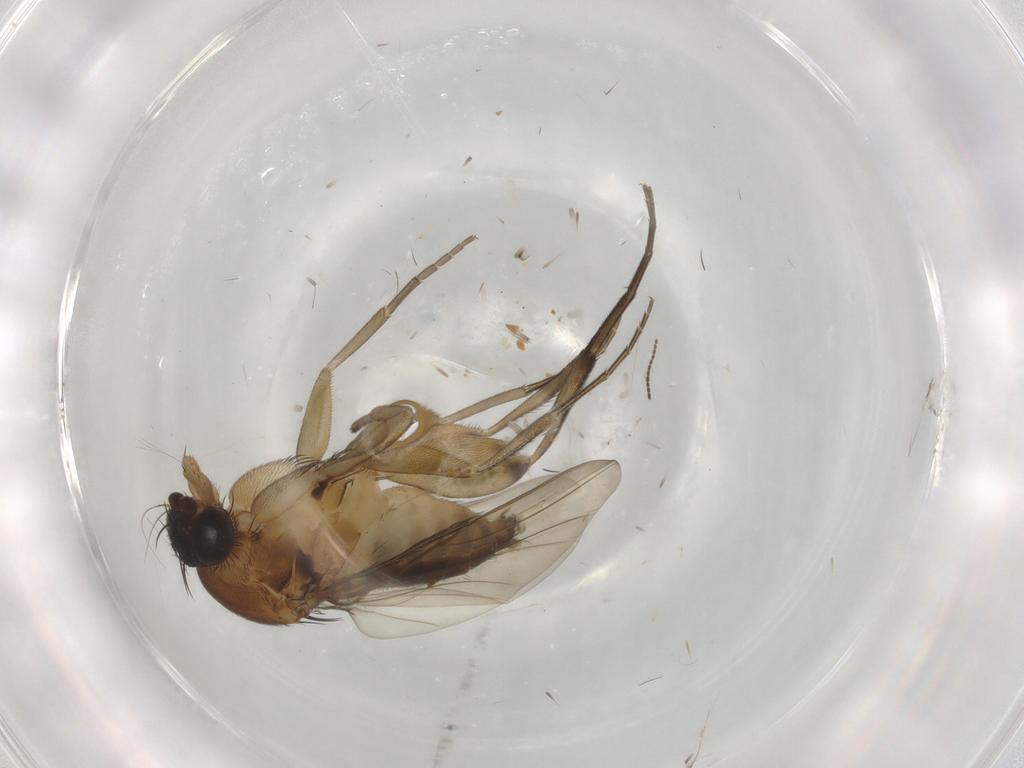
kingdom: Animalia
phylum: Arthropoda
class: Insecta
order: Diptera
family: Phoridae
